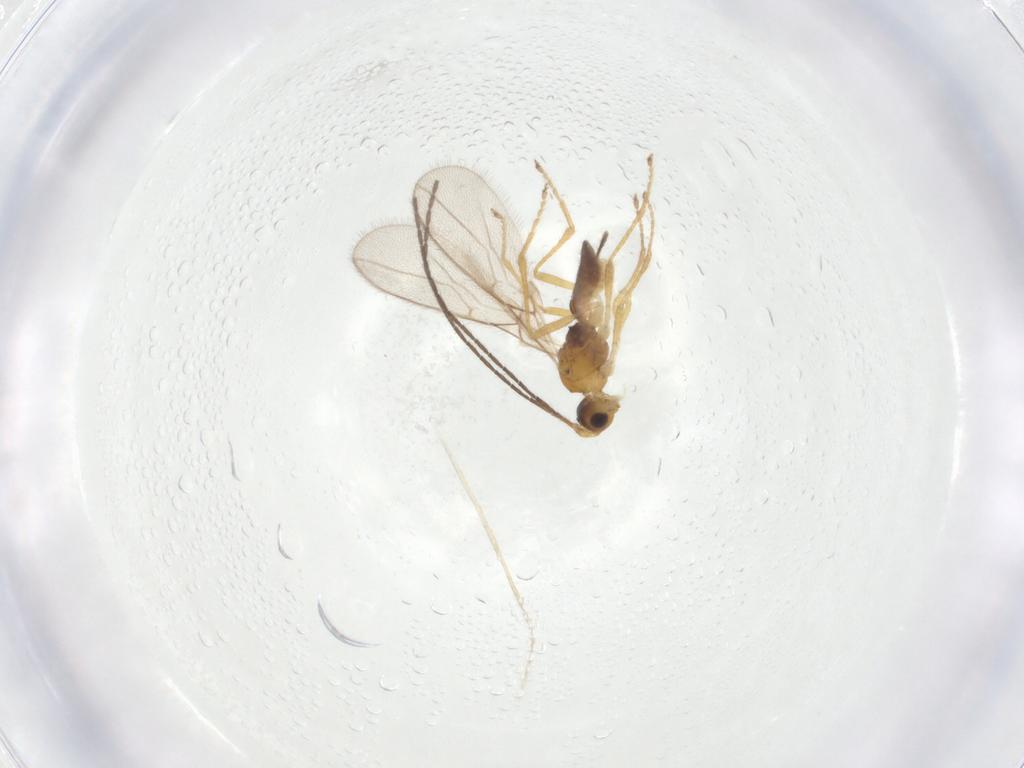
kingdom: Animalia
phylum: Arthropoda
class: Insecta
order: Hymenoptera
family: Braconidae
